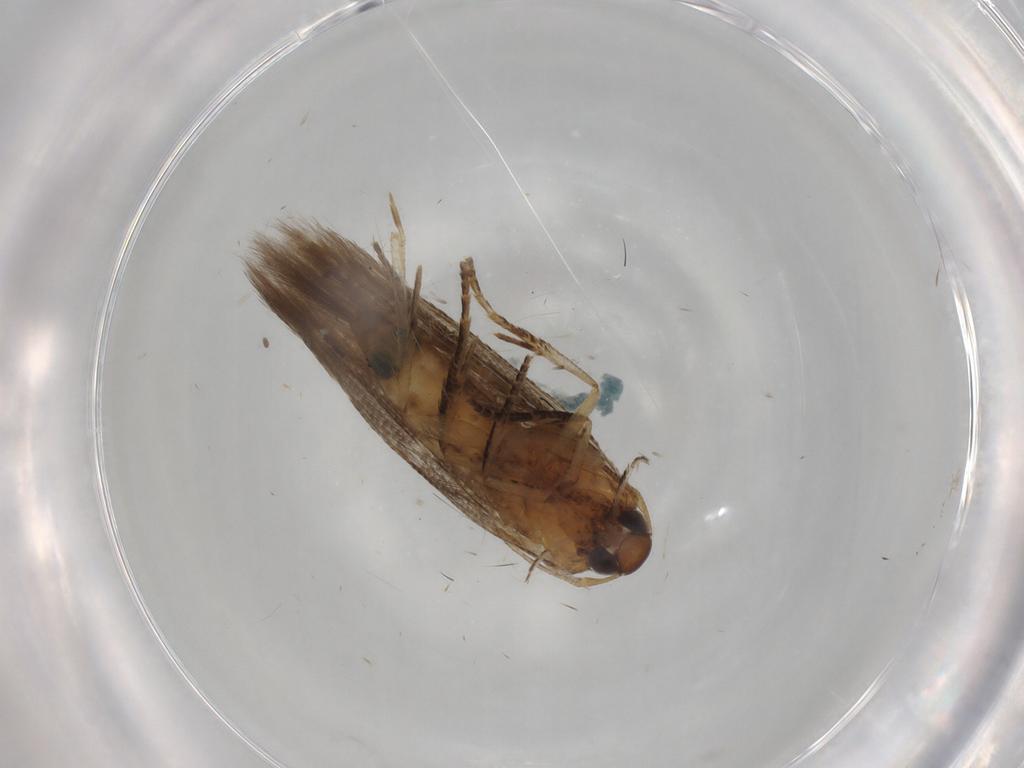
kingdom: Animalia
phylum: Arthropoda
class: Insecta
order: Lepidoptera
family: Cosmopterigidae
